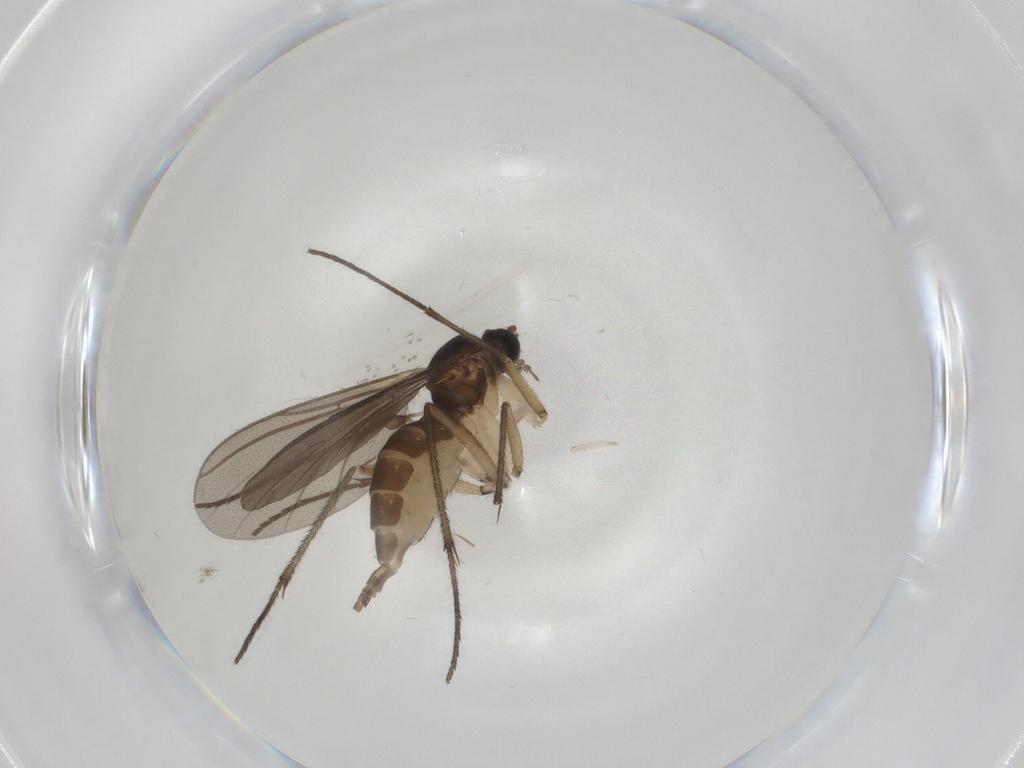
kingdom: Animalia
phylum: Arthropoda
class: Insecta
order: Diptera
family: Sciaridae
